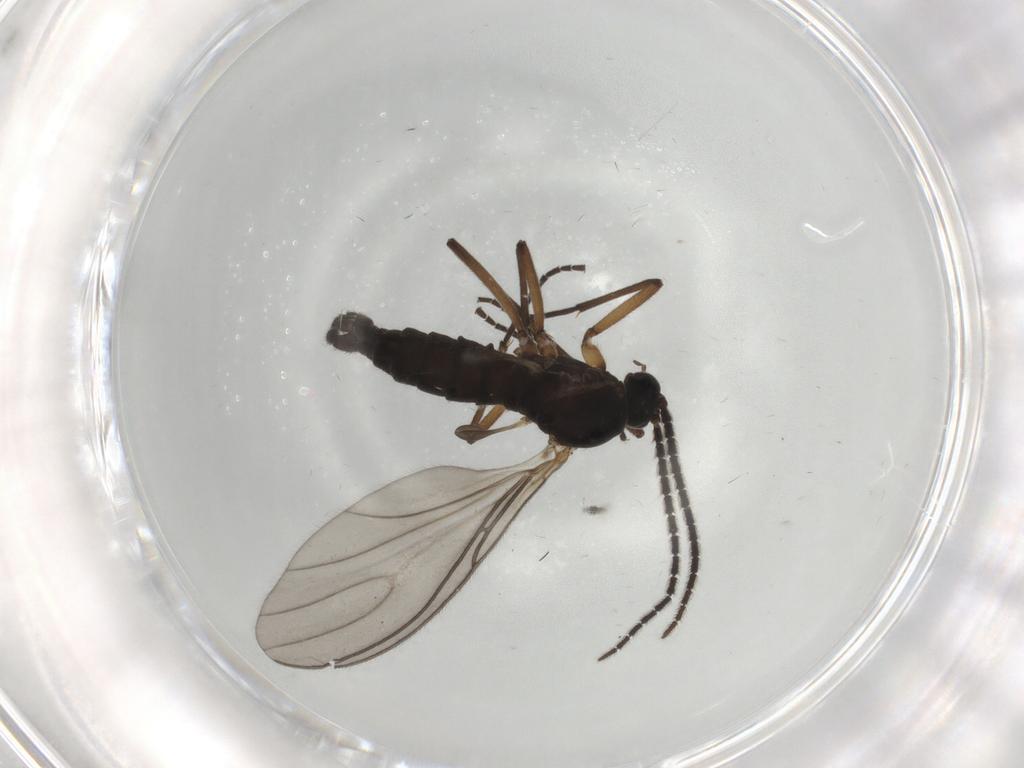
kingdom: Animalia
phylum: Arthropoda
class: Insecta
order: Diptera
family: Sciaridae
